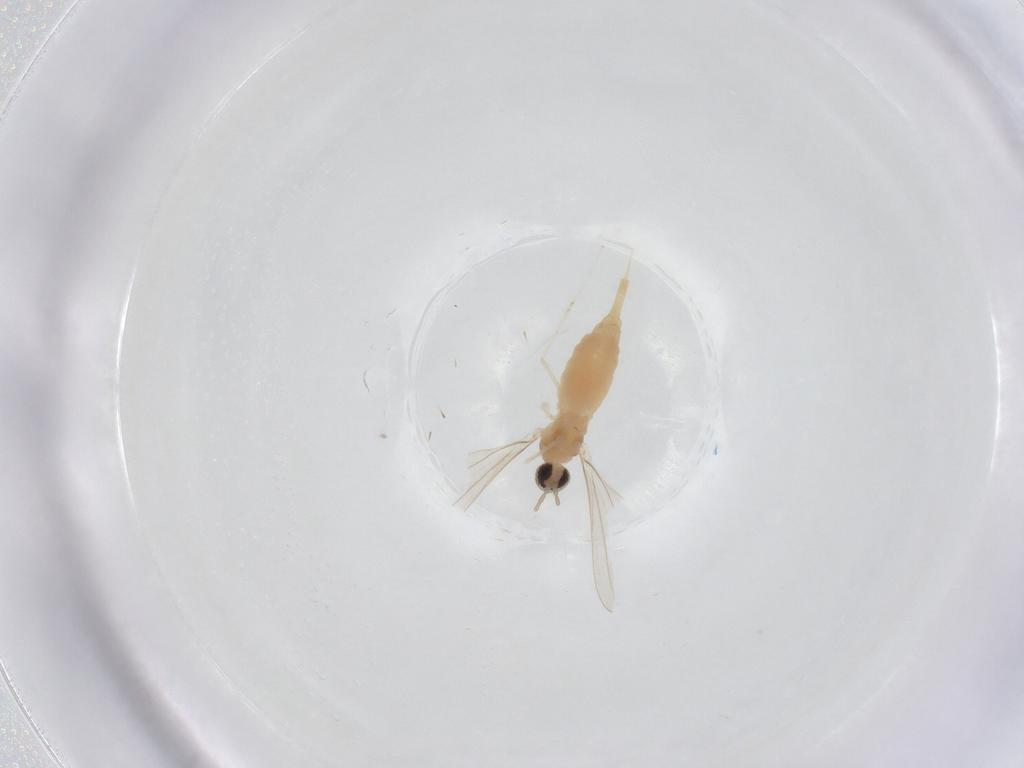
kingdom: Animalia
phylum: Arthropoda
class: Insecta
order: Diptera
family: Cecidomyiidae
